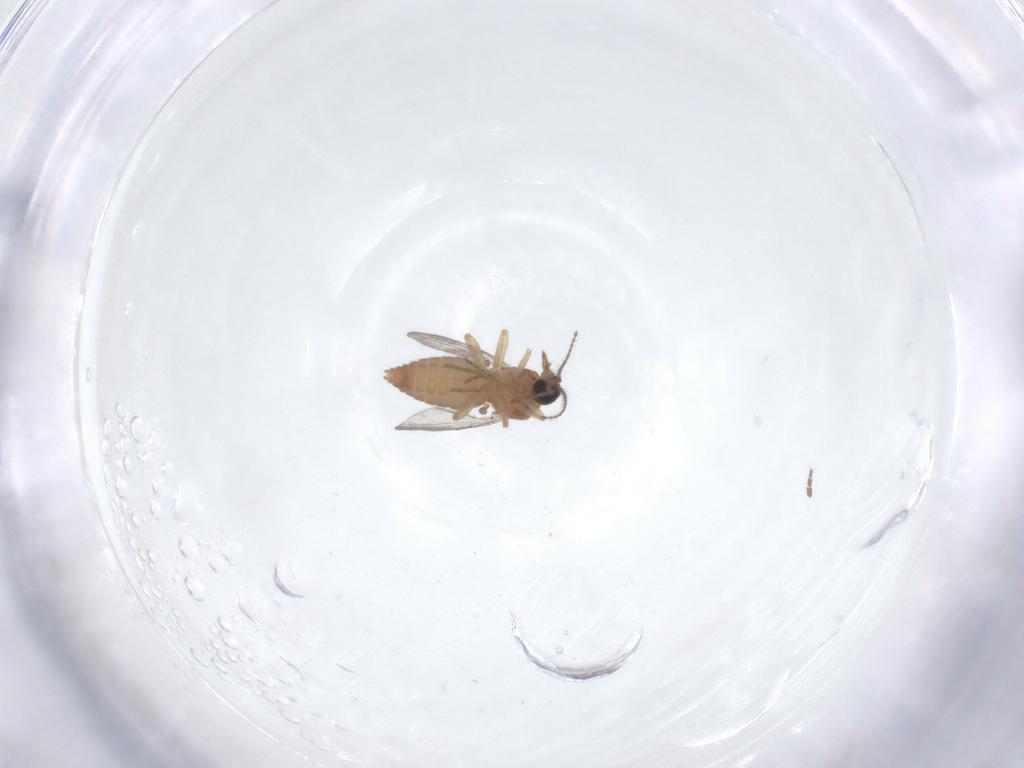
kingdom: Animalia
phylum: Arthropoda
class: Insecta
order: Diptera
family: Ceratopogonidae
